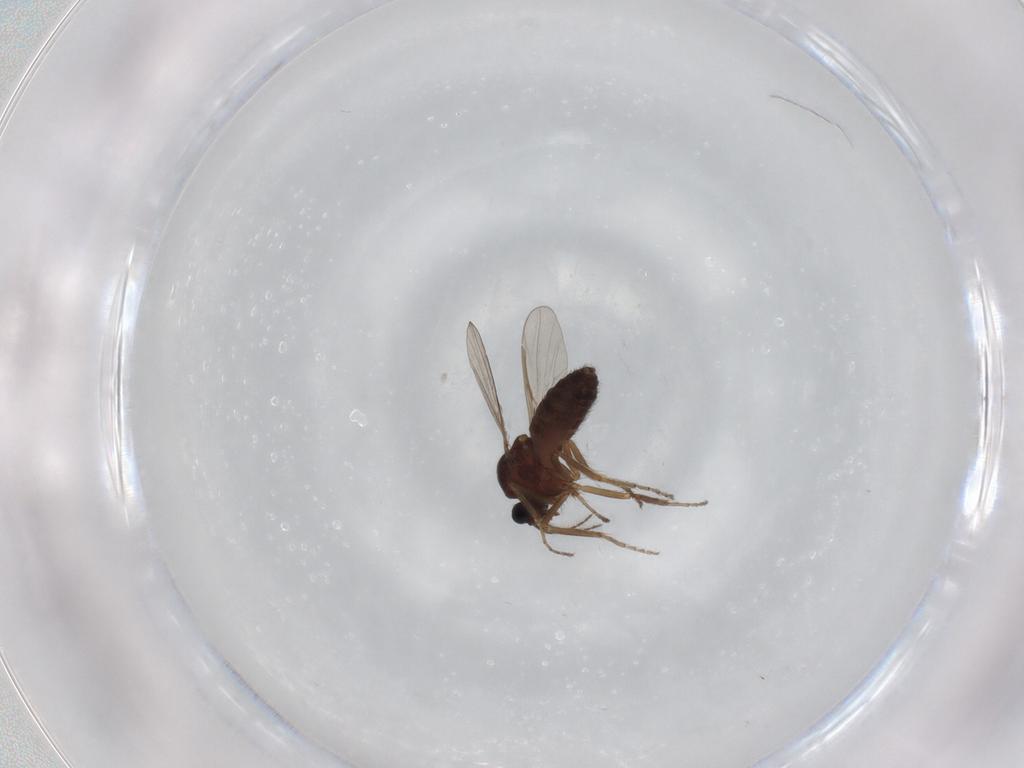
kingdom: Animalia
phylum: Arthropoda
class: Insecta
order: Diptera
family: Ceratopogonidae
